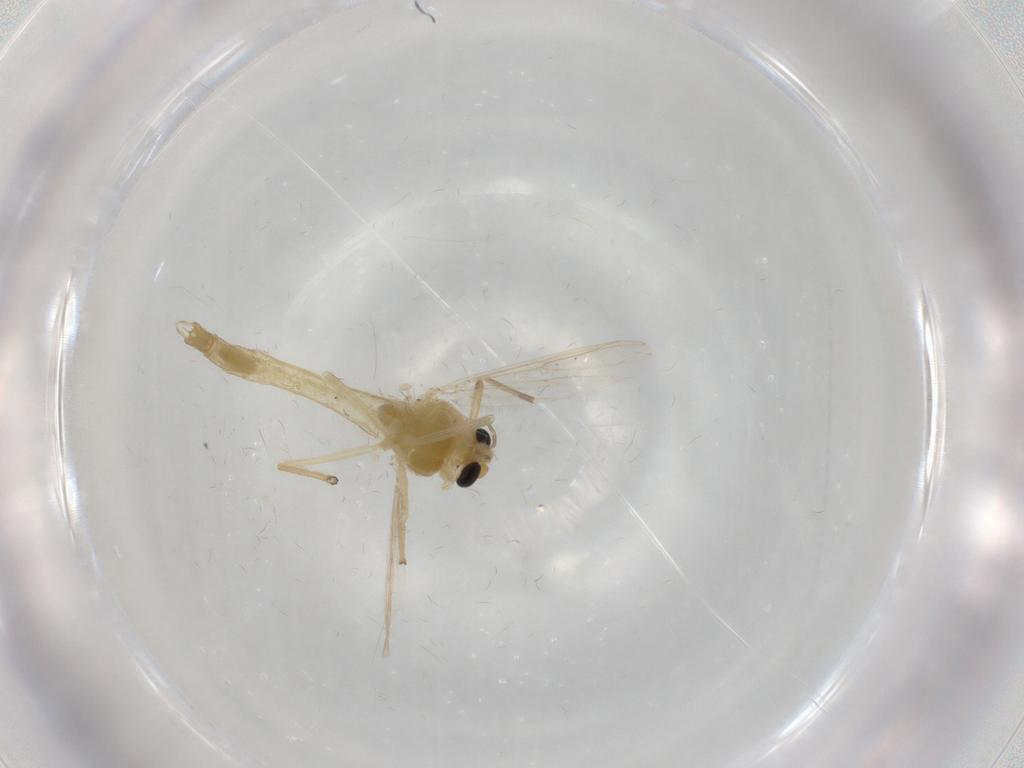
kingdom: Animalia
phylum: Arthropoda
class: Insecta
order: Diptera
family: Chironomidae
